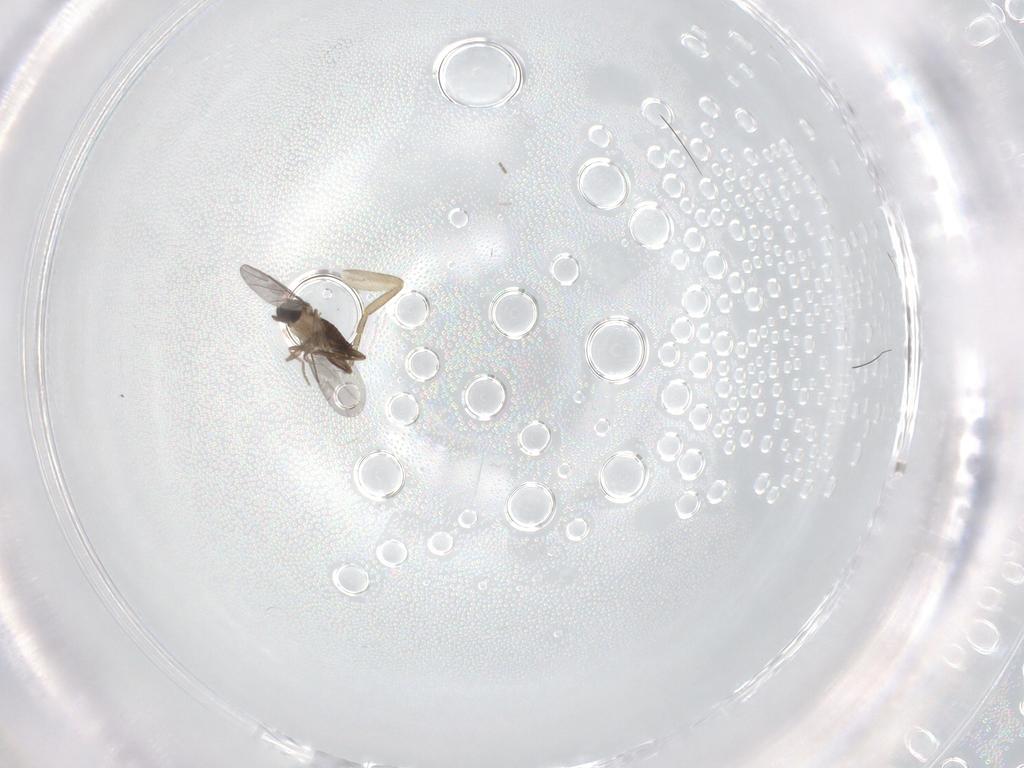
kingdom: Animalia
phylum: Arthropoda
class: Insecta
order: Diptera
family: Phoridae
